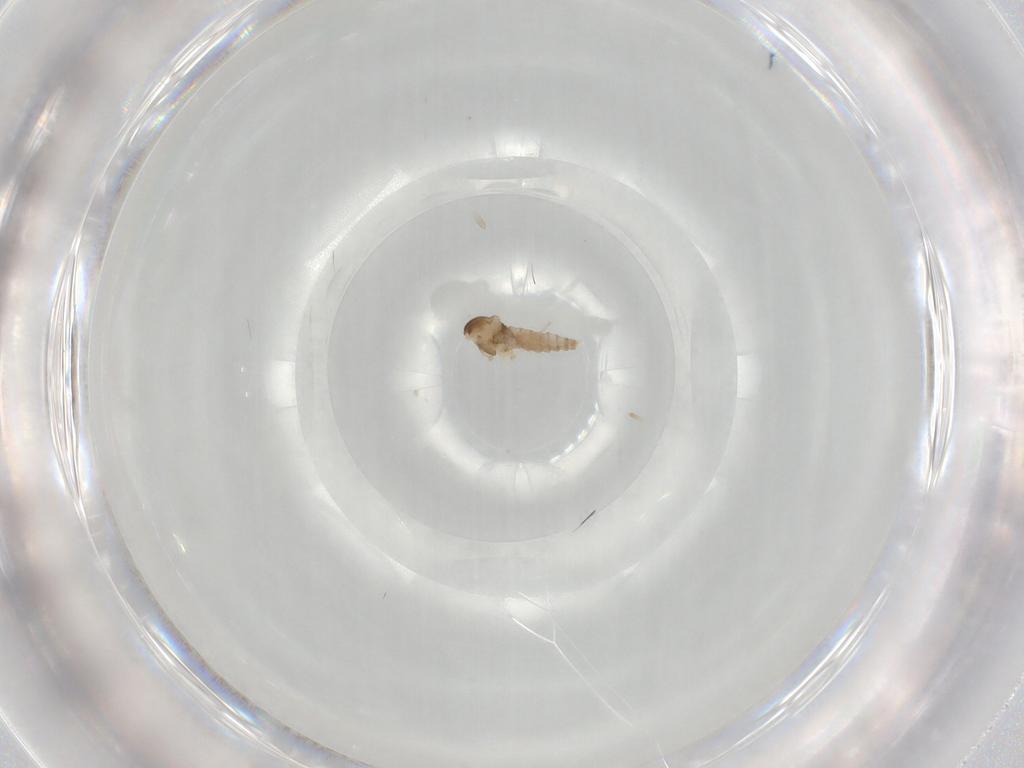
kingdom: Animalia
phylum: Arthropoda
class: Insecta
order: Diptera
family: Cecidomyiidae
